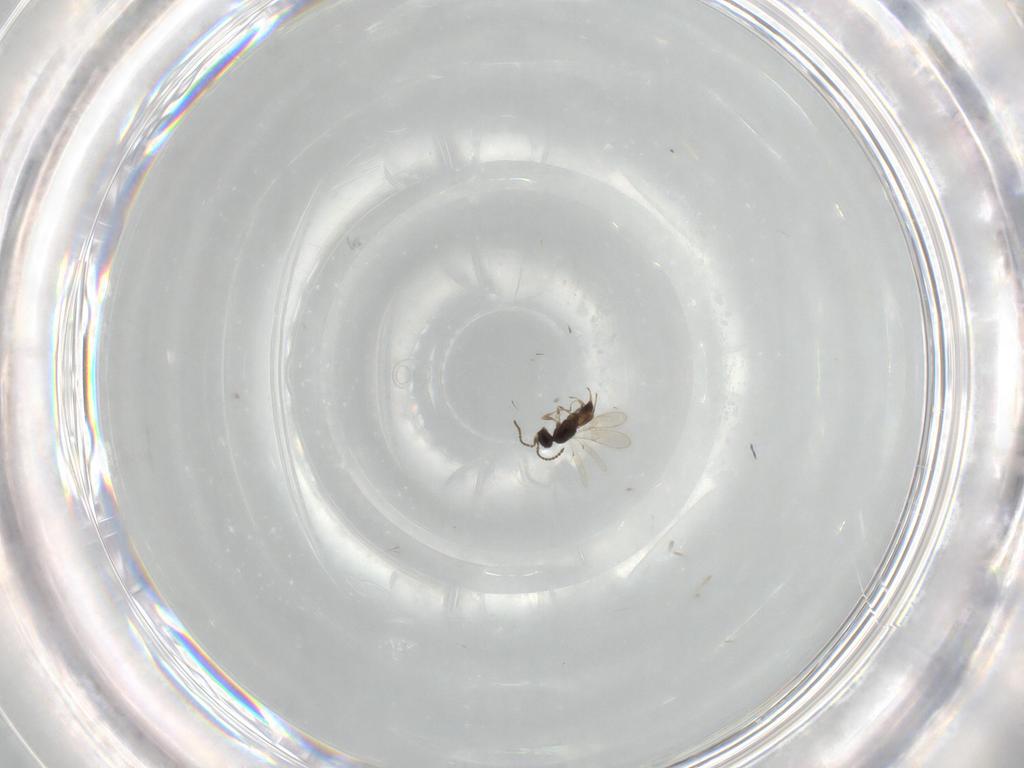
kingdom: Animalia
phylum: Arthropoda
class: Insecta
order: Hymenoptera
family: Scelionidae
